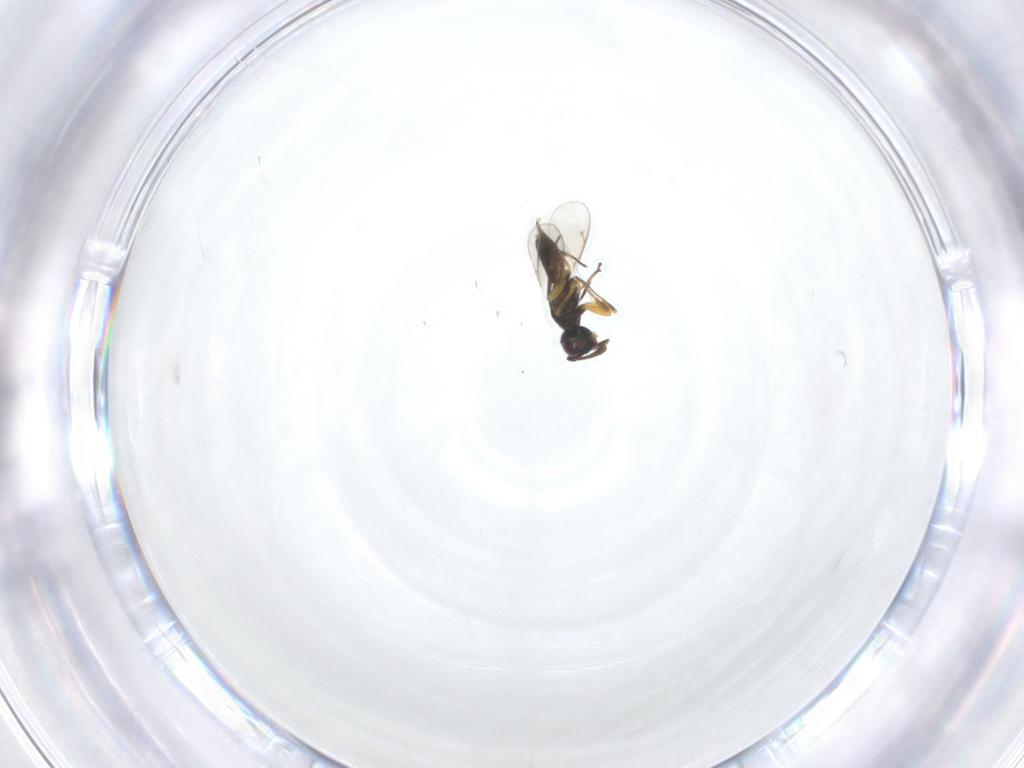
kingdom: Animalia
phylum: Arthropoda
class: Insecta
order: Hymenoptera
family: Eupelmidae
